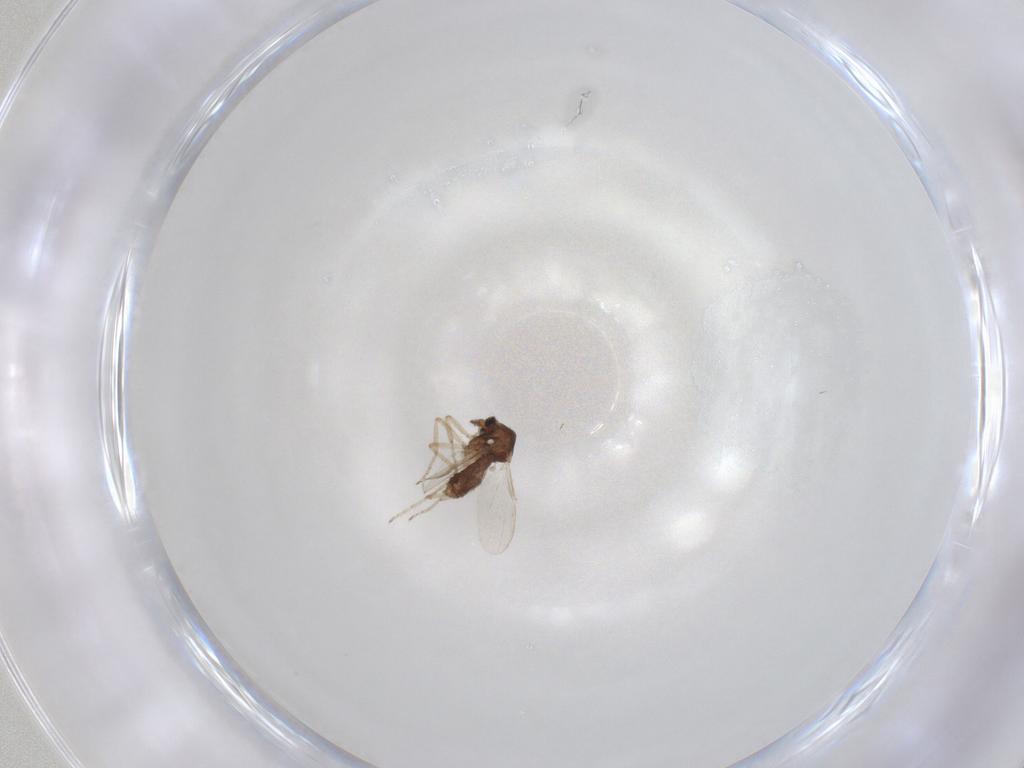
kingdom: Animalia
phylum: Arthropoda
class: Insecta
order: Diptera
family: Ceratopogonidae
